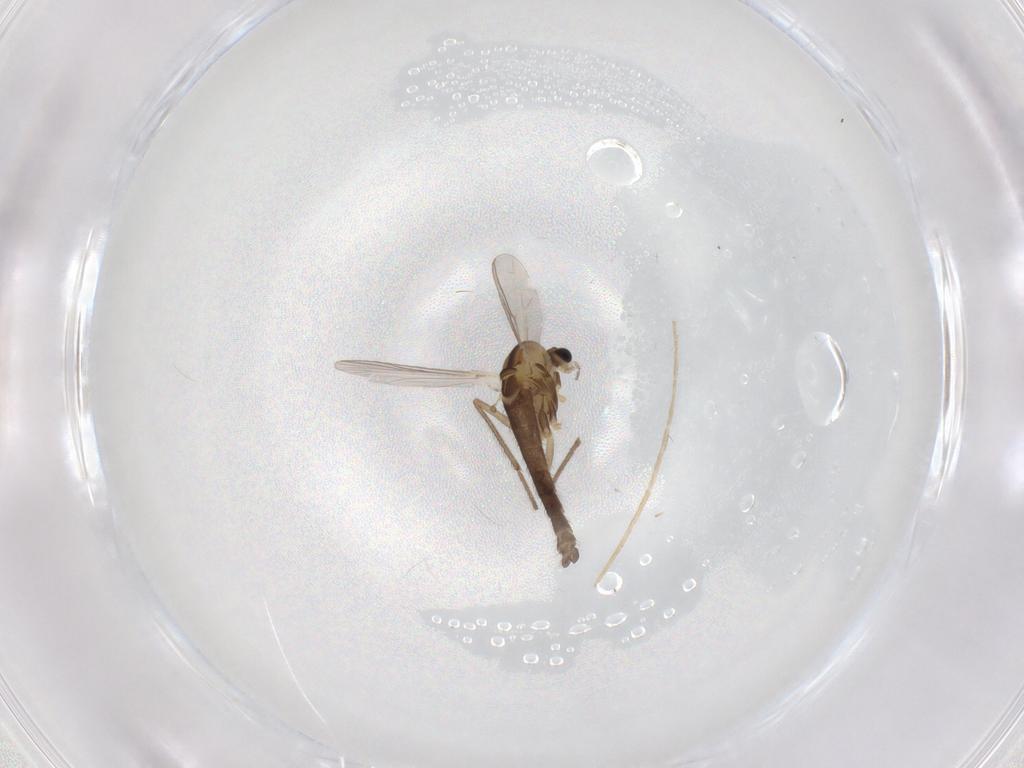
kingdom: Animalia
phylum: Arthropoda
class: Insecta
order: Diptera
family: Chironomidae
